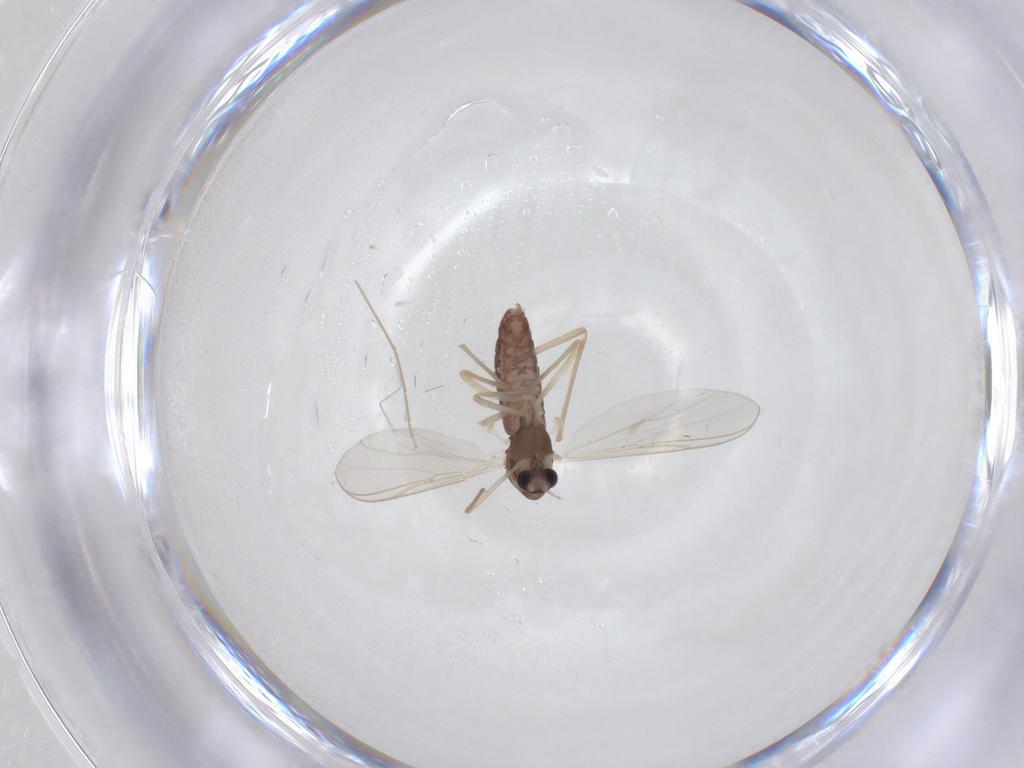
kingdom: Animalia
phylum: Arthropoda
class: Insecta
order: Diptera
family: Chironomidae
